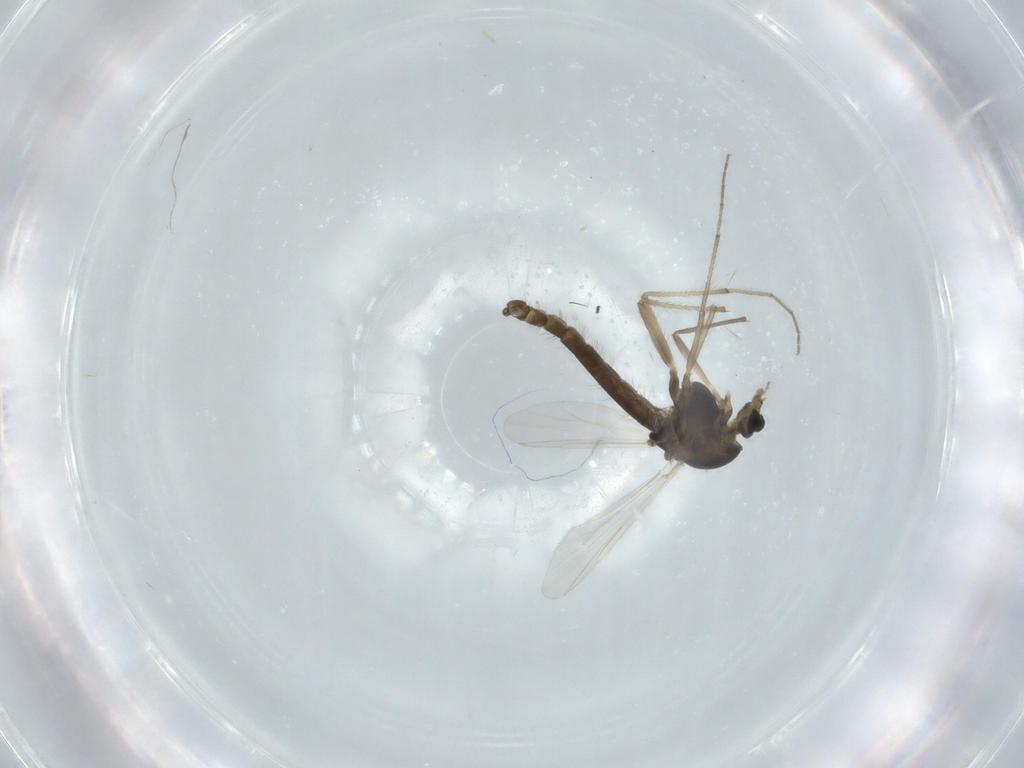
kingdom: Animalia
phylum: Arthropoda
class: Insecta
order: Diptera
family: Chironomidae
